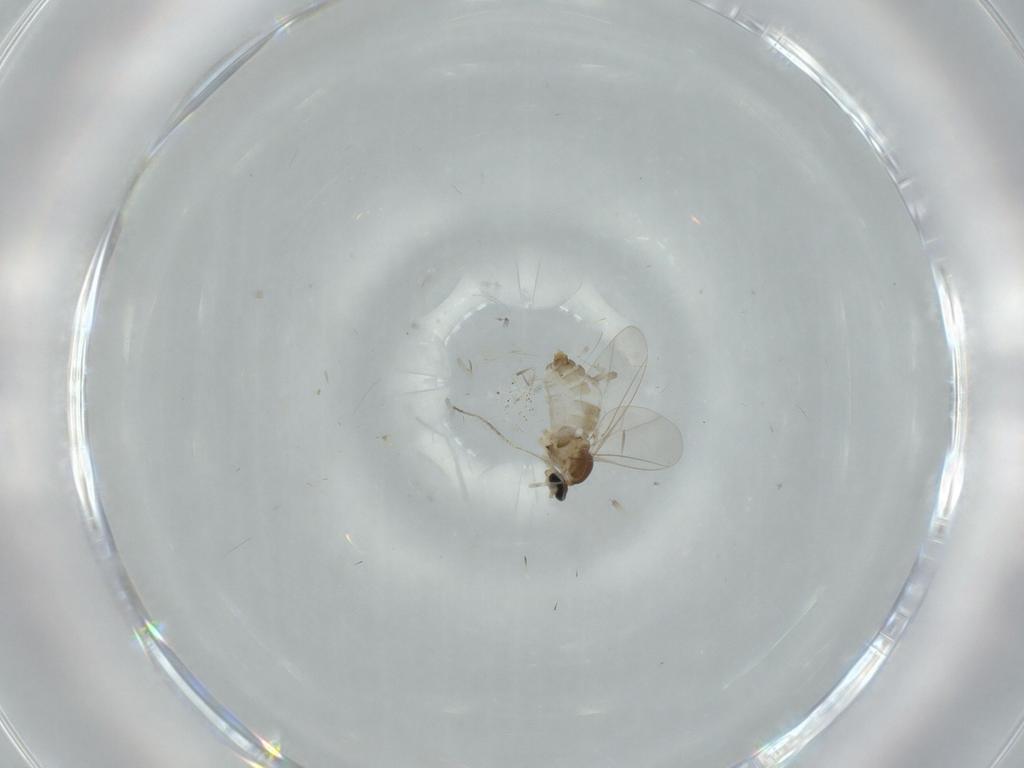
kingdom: Animalia
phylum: Arthropoda
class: Insecta
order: Diptera
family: Cecidomyiidae
